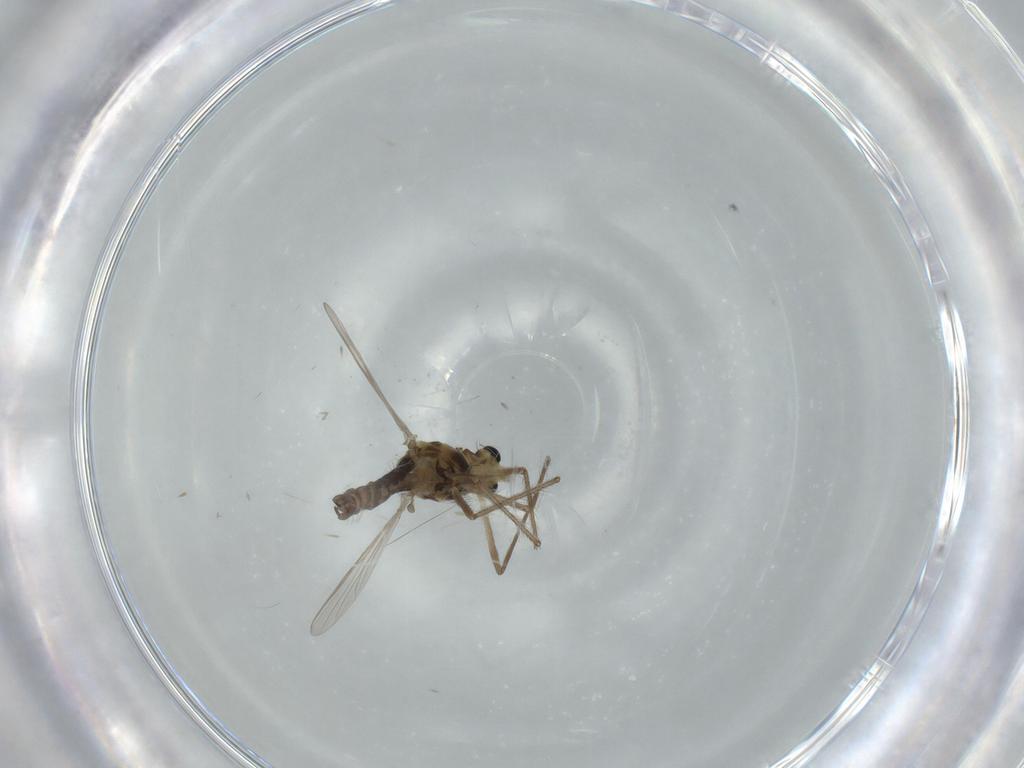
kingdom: Animalia
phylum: Arthropoda
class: Insecta
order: Diptera
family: Chironomidae
